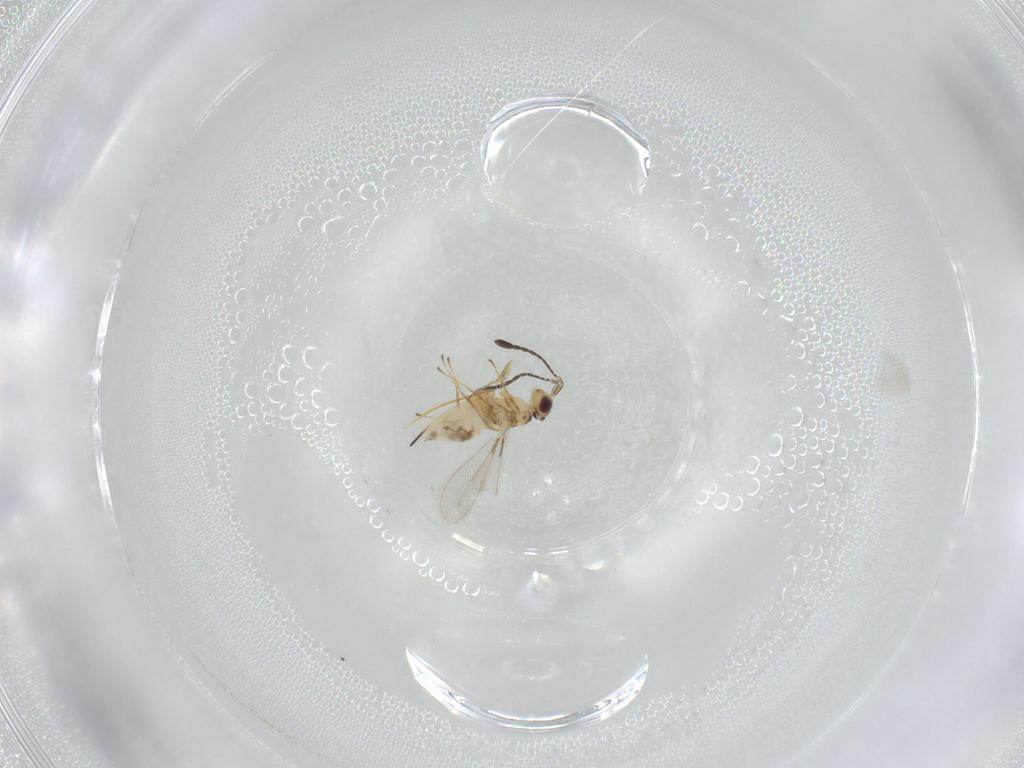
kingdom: Animalia
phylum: Arthropoda
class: Insecta
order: Hymenoptera
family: Mymaridae
